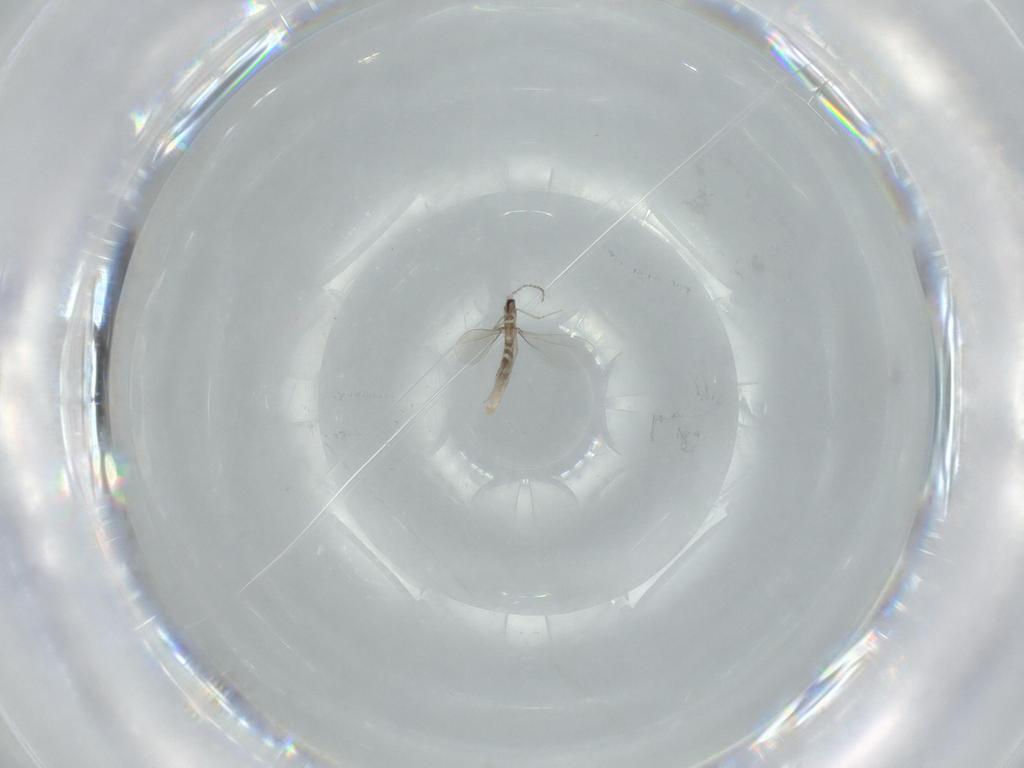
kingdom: Animalia
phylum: Arthropoda
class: Insecta
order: Diptera
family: Cecidomyiidae
